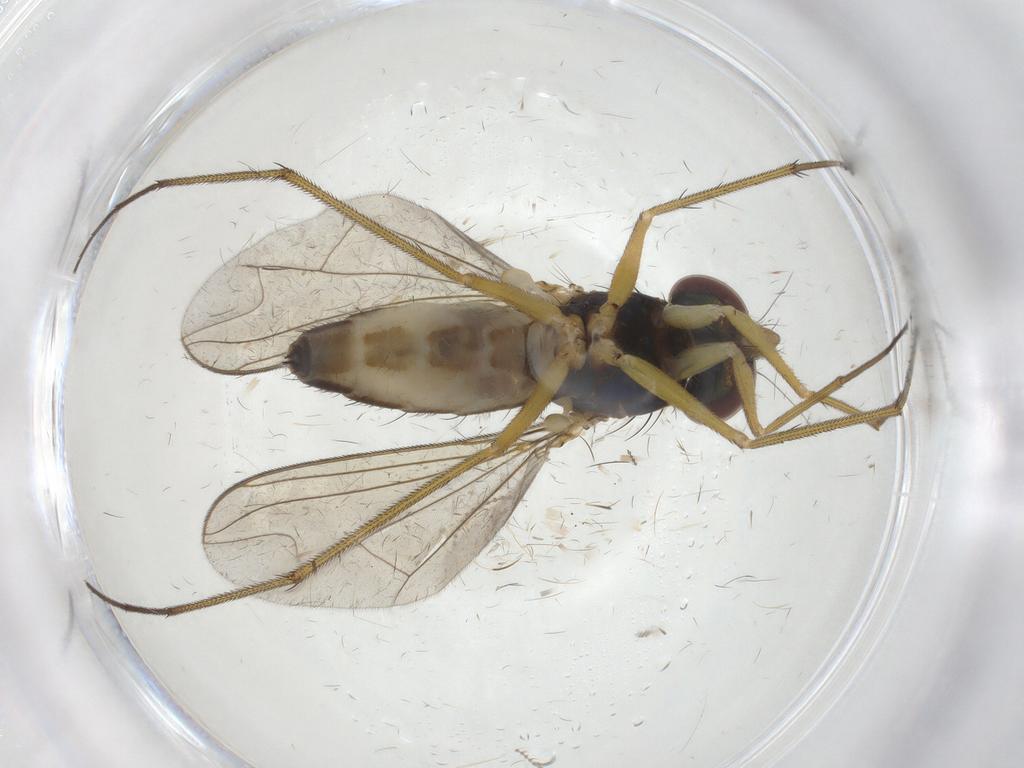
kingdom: Animalia
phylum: Arthropoda
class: Insecta
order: Diptera
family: Dolichopodidae
